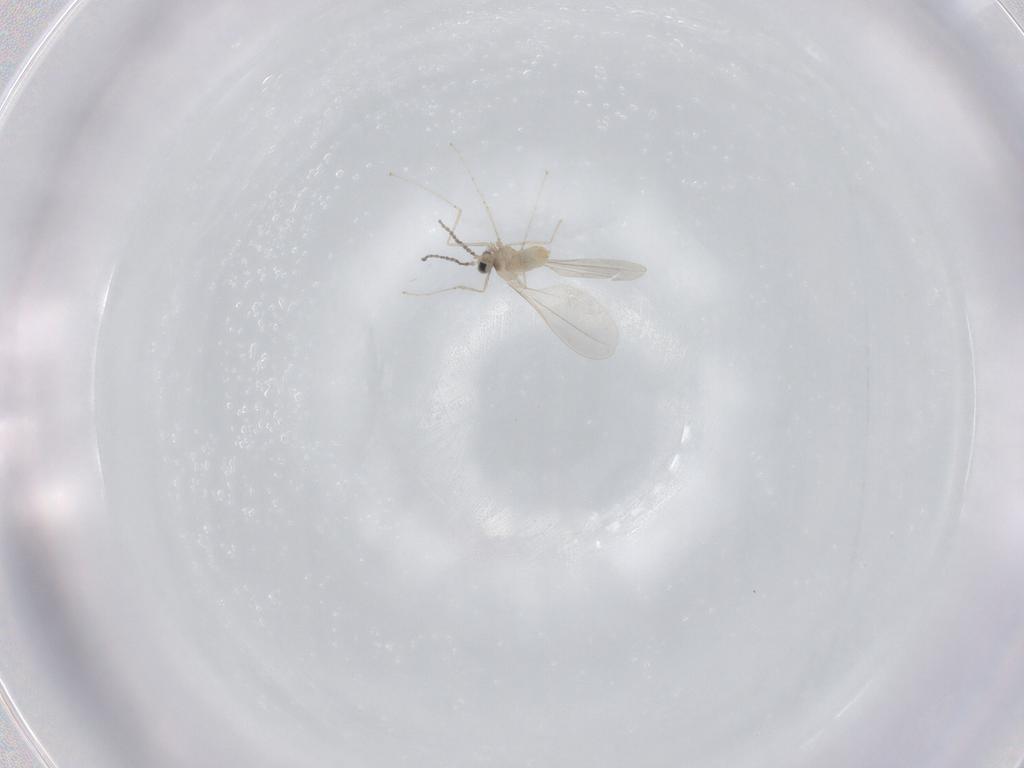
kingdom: Animalia
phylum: Arthropoda
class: Insecta
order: Diptera
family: Cecidomyiidae
